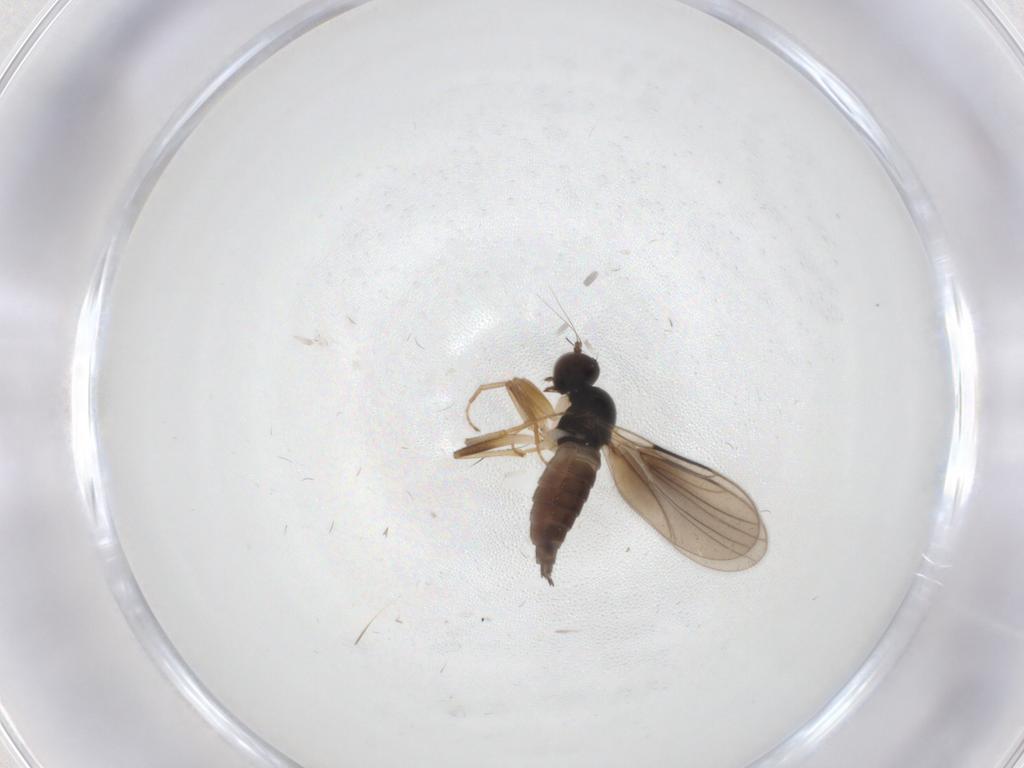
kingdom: Animalia
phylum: Arthropoda
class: Insecta
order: Diptera
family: Hybotidae
